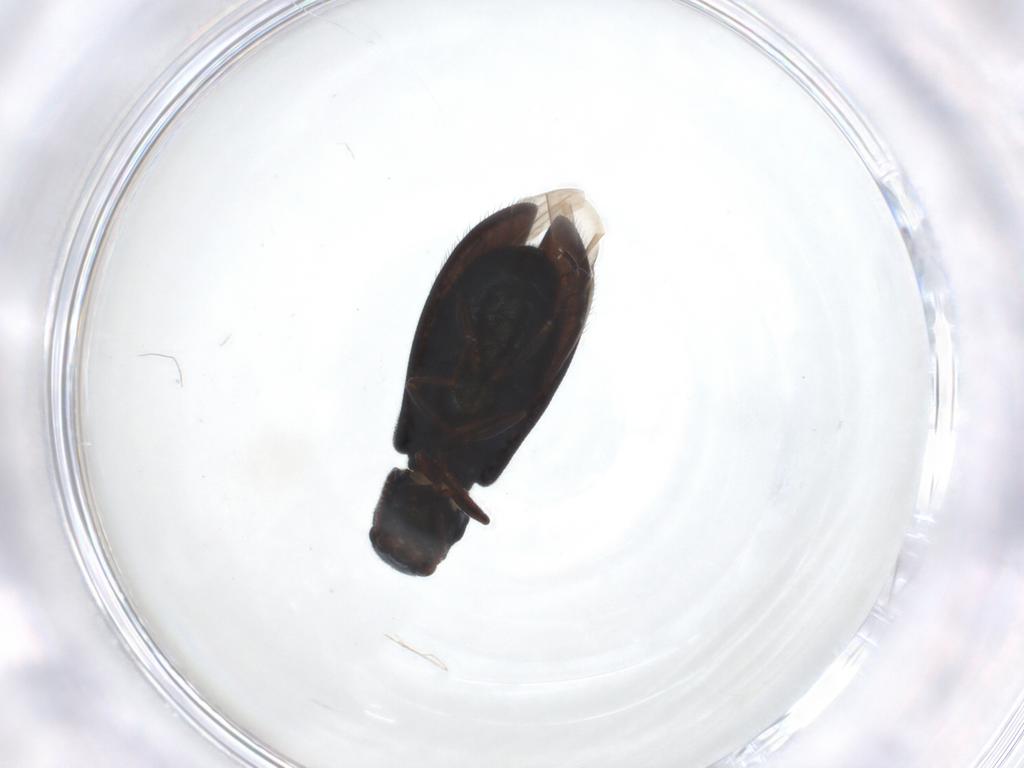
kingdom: Animalia
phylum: Arthropoda
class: Insecta
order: Coleoptera
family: Melyridae
